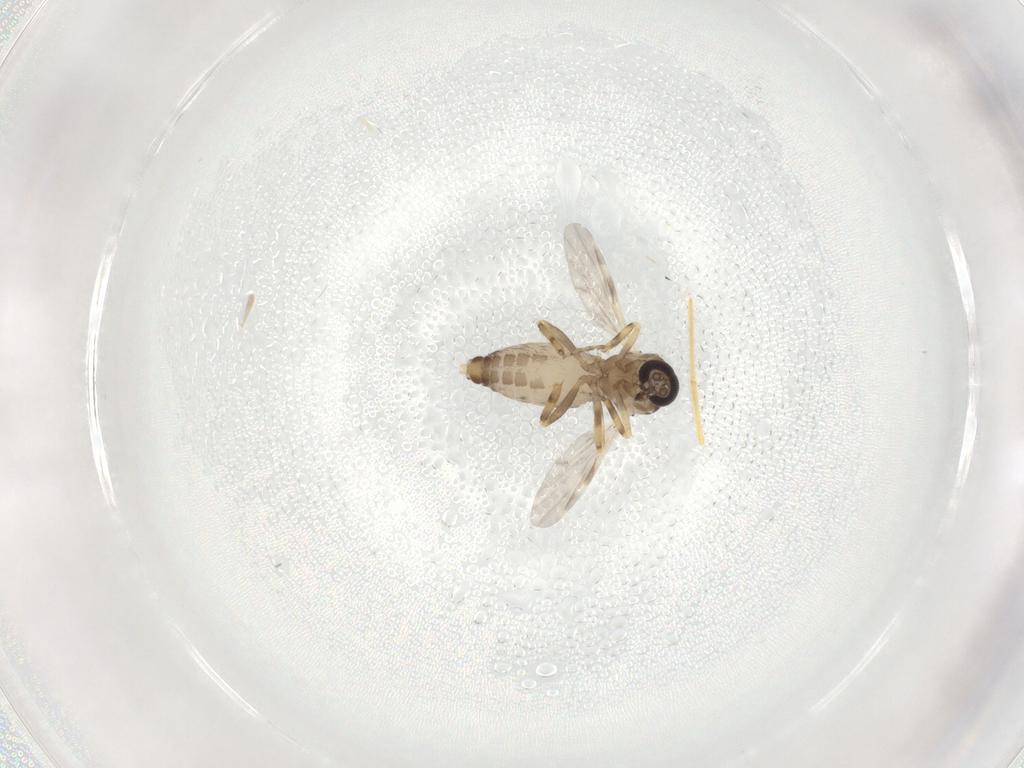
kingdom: Animalia
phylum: Arthropoda
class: Insecta
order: Diptera
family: Ceratopogonidae
